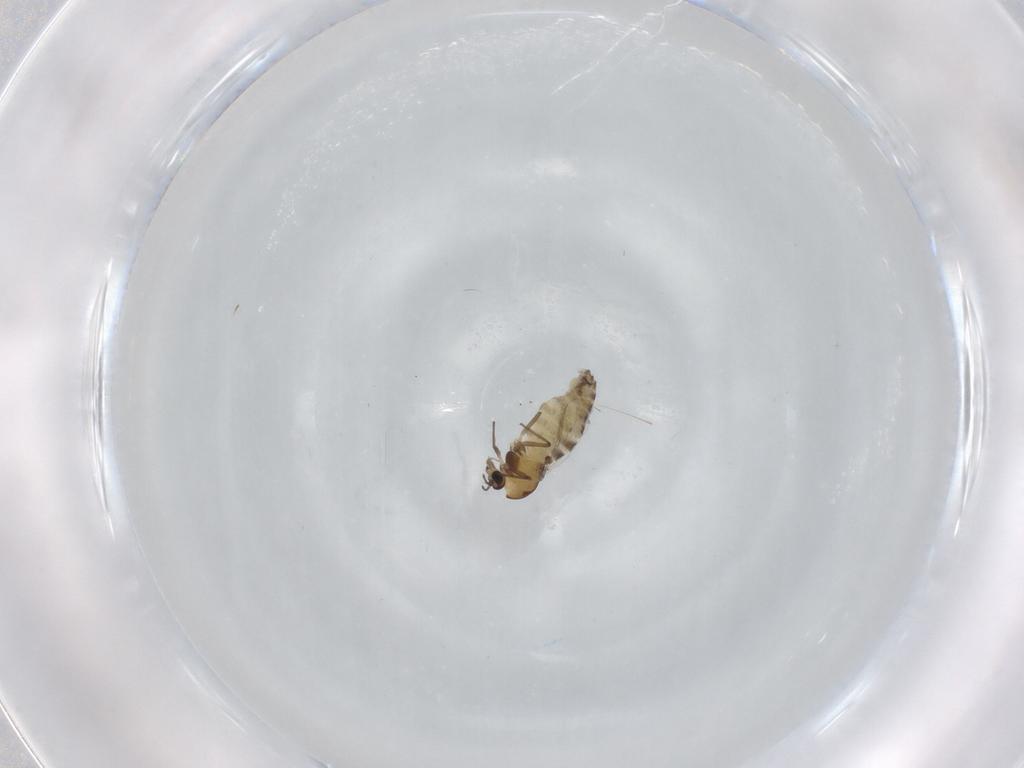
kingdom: Animalia
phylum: Arthropoda
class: Insecta
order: Diptera
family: Chironomidae
